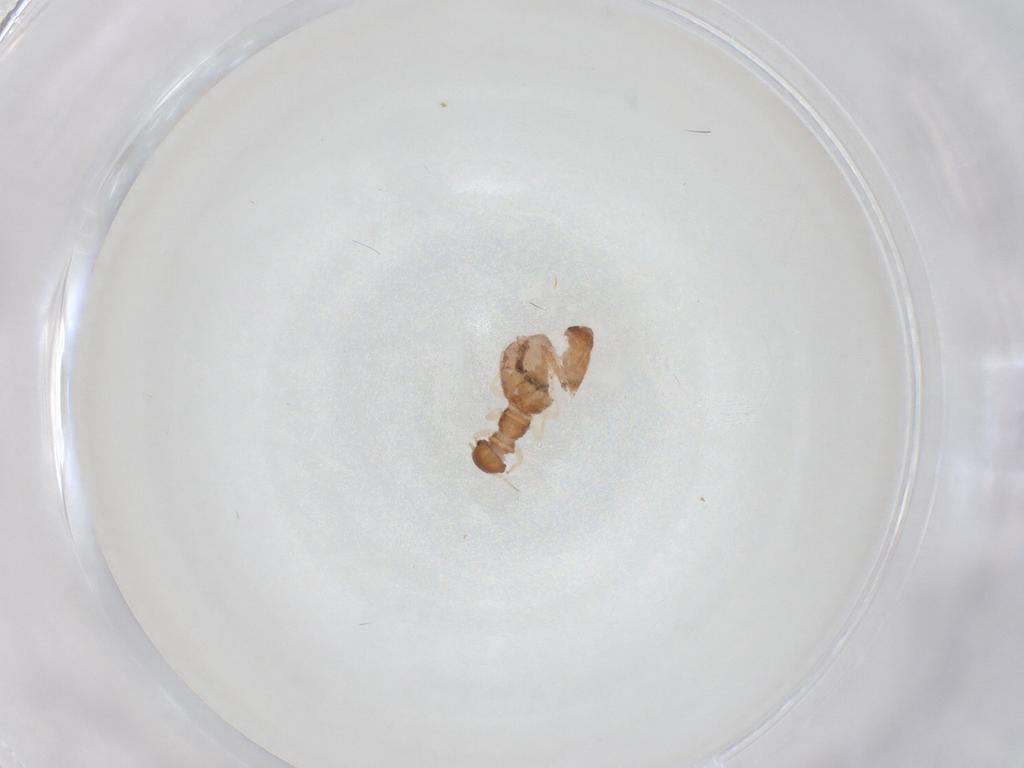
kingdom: Animalia
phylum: Arthropoda
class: Insecta
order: Psocodea
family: Archipsocidae
